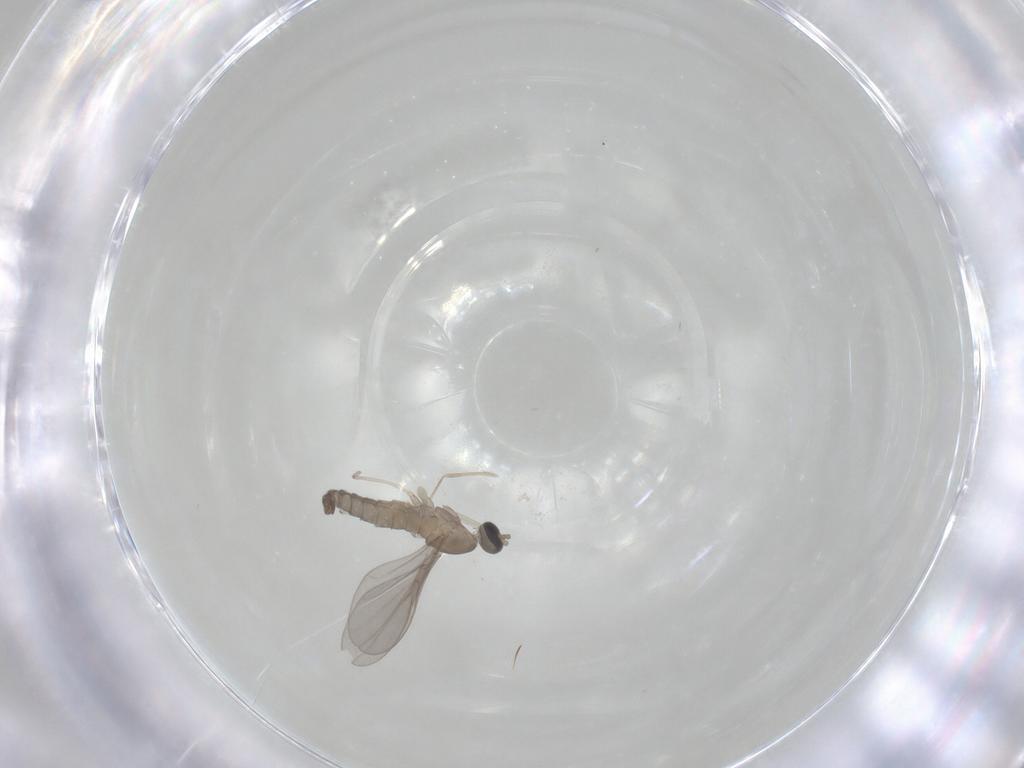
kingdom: Animalia
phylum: Arthropoda
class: Insecta
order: Diptera
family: Cecidomyiidae
